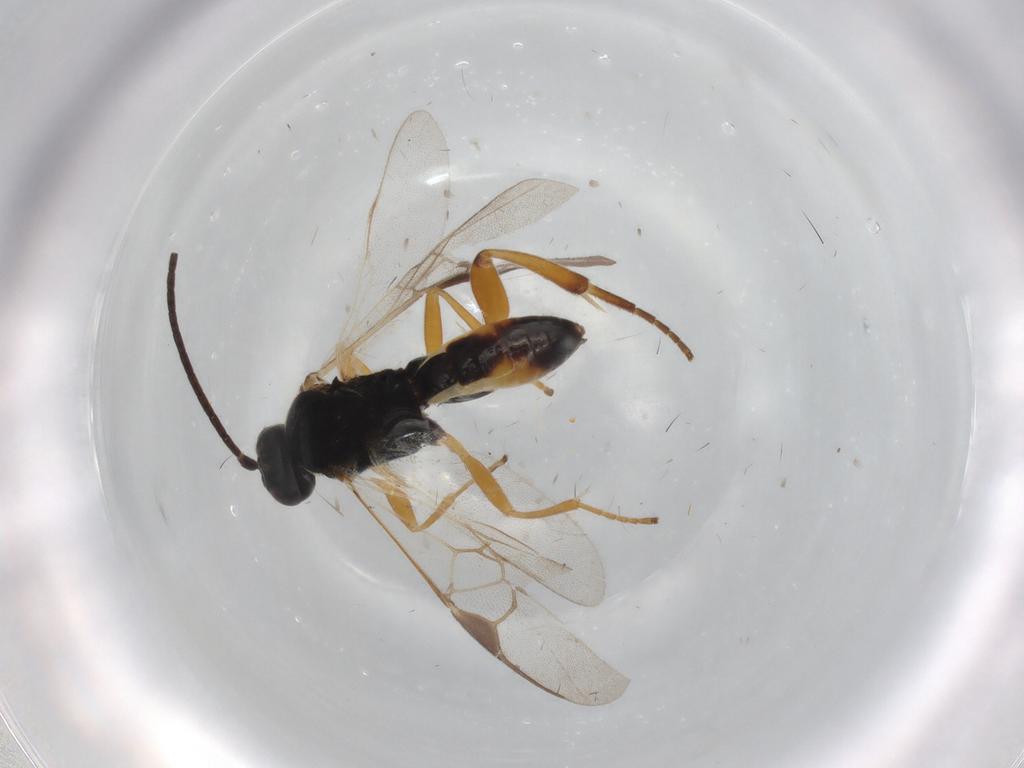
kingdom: Animalia
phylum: Arthropoda
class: Insecta
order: Hymenoptera
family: Braconidae
